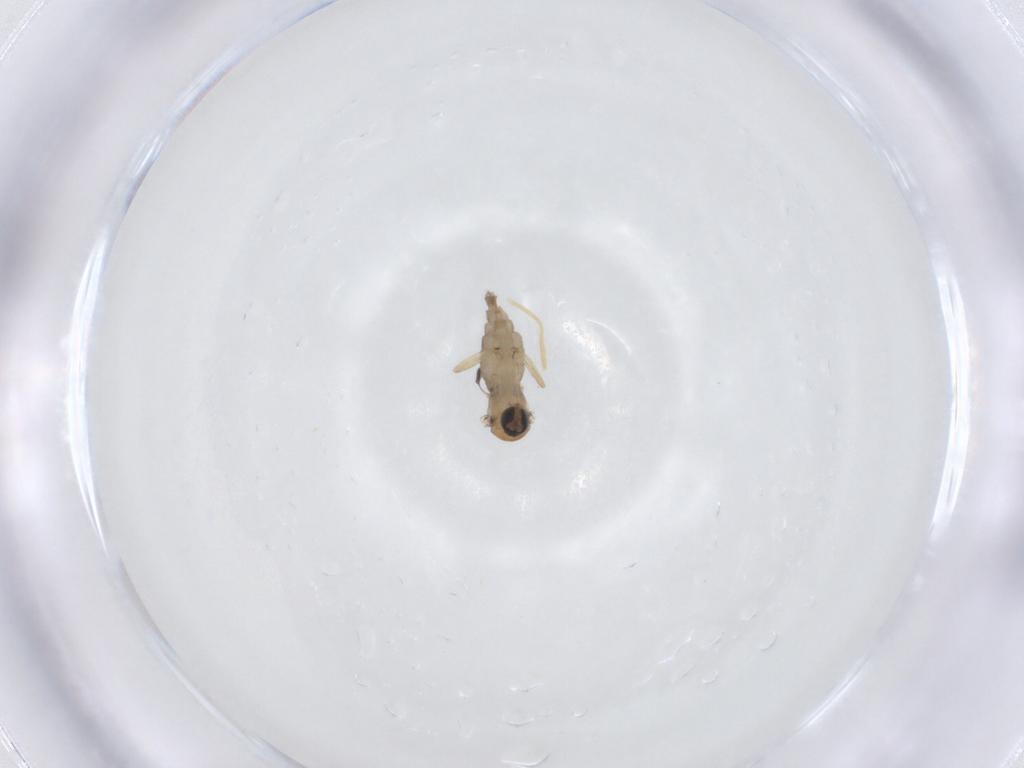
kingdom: Animalia
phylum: Arthropoda
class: Insecta
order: Diptera
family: Sciaridae
